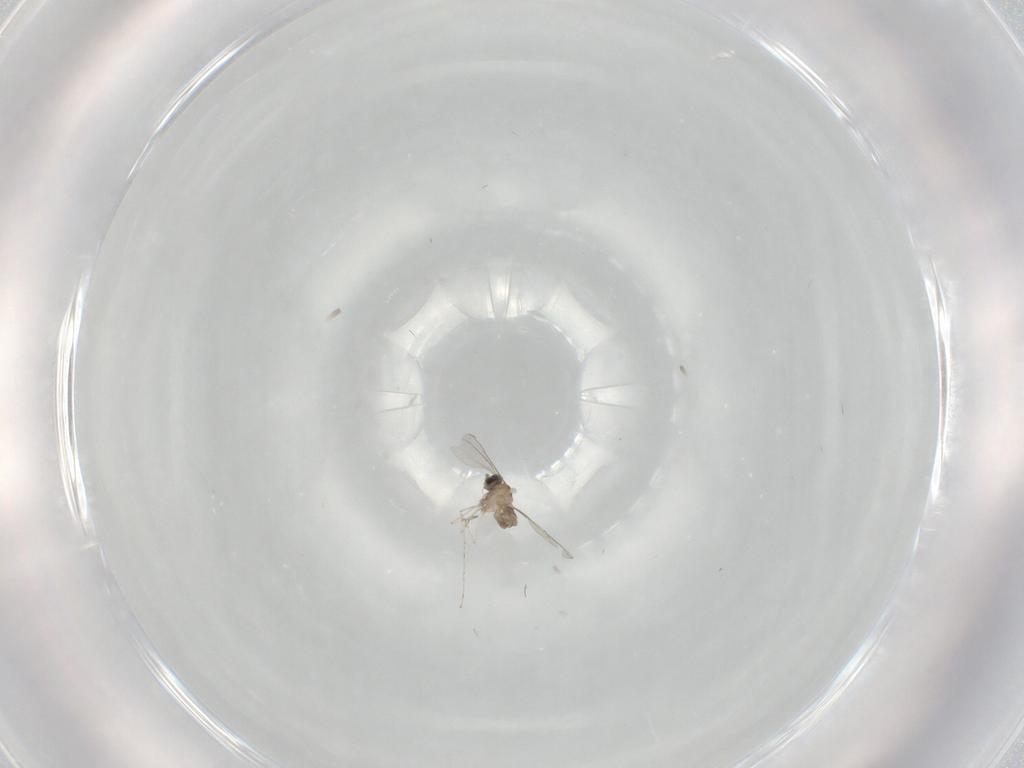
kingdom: Animalia
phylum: Arthropoda
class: Insecta
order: Diptera
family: Cecidomyiidae
